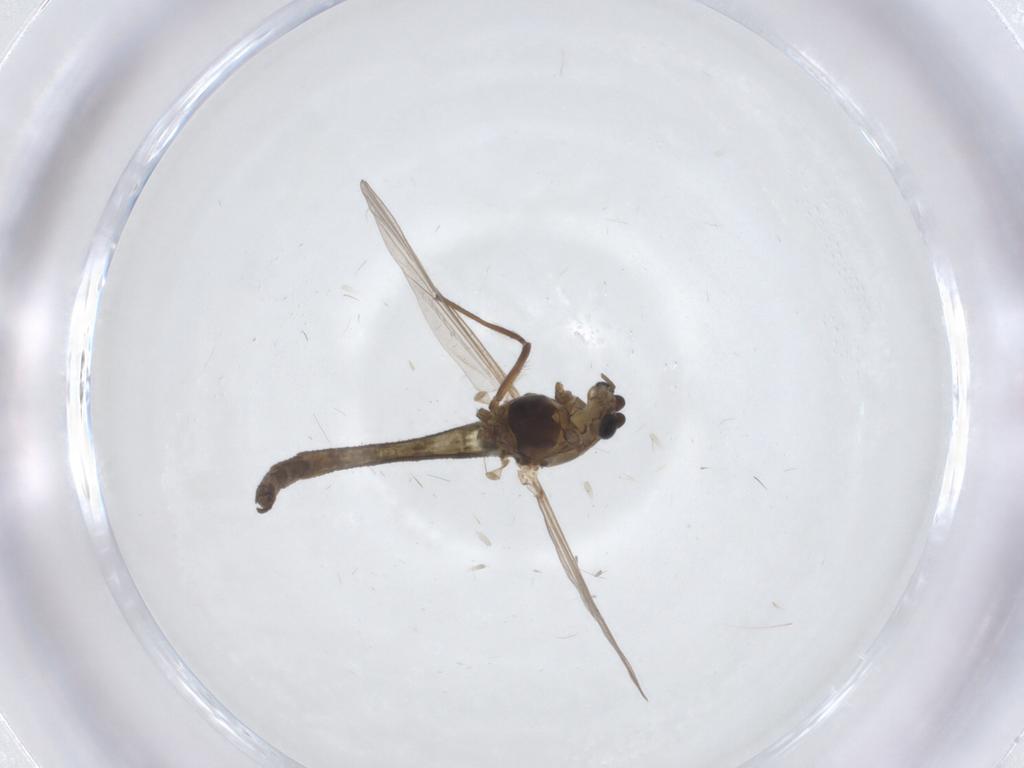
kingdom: Animalia
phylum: Arthropoda
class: Insecta
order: Diptera
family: Chironomidae
